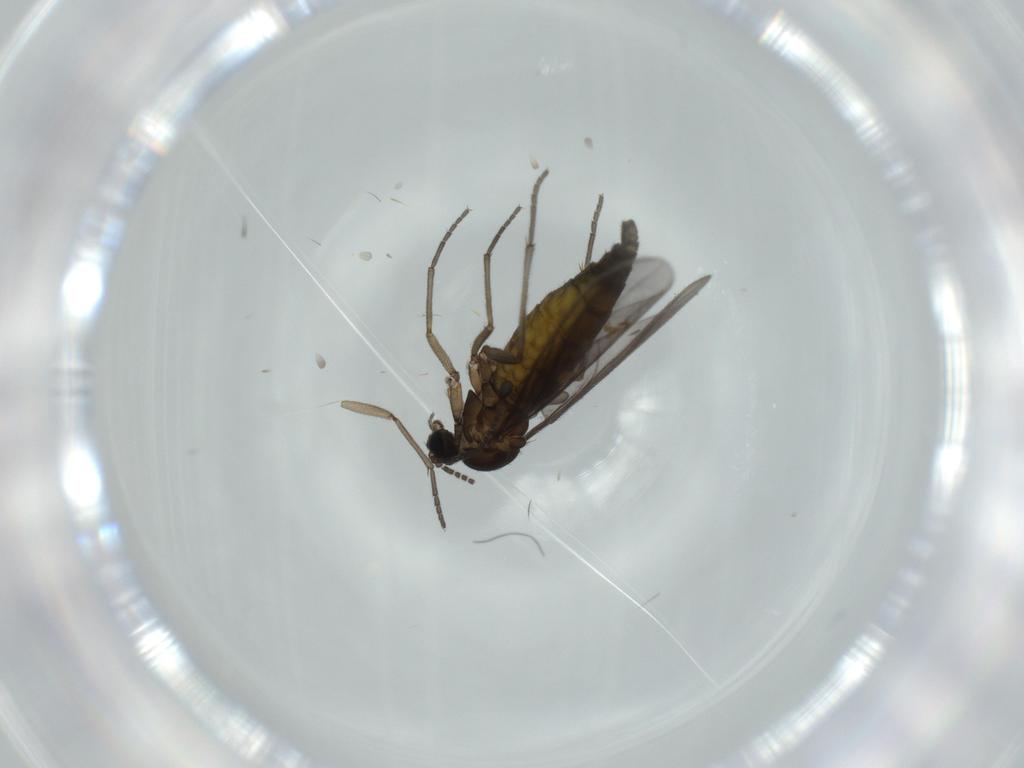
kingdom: Animalia
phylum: Arthropoda
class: Insecta
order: Diptera
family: Sciaridae
